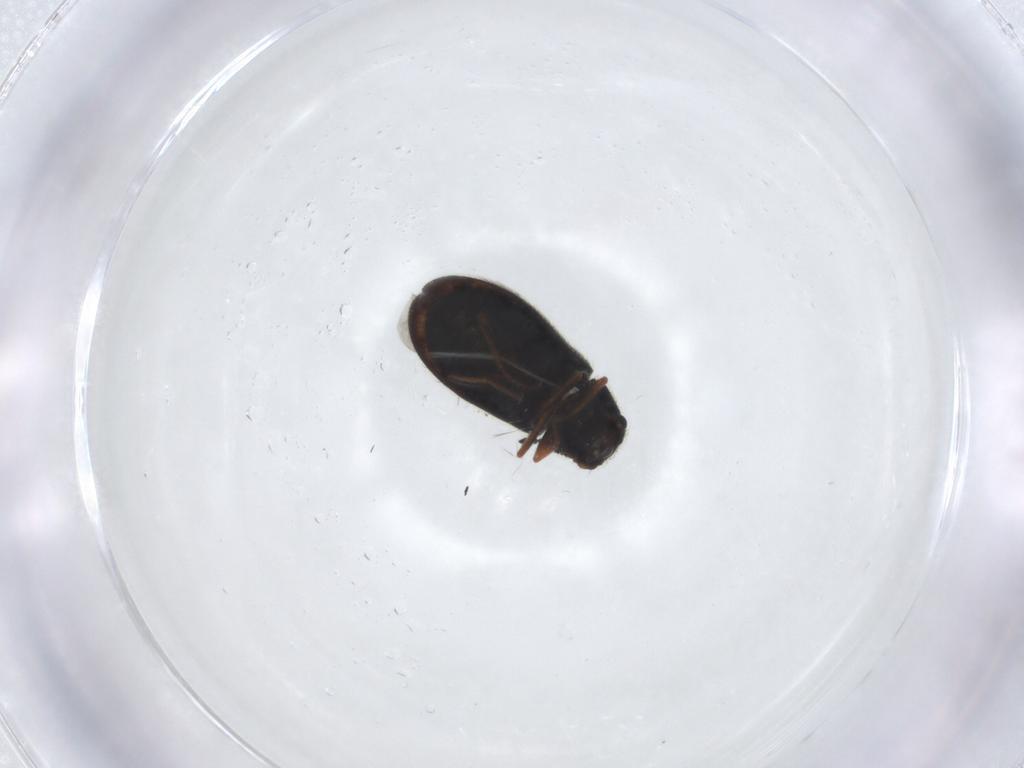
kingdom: Animalia
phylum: Arthropoda
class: Insecta
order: Coleoptera
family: Melyridae
